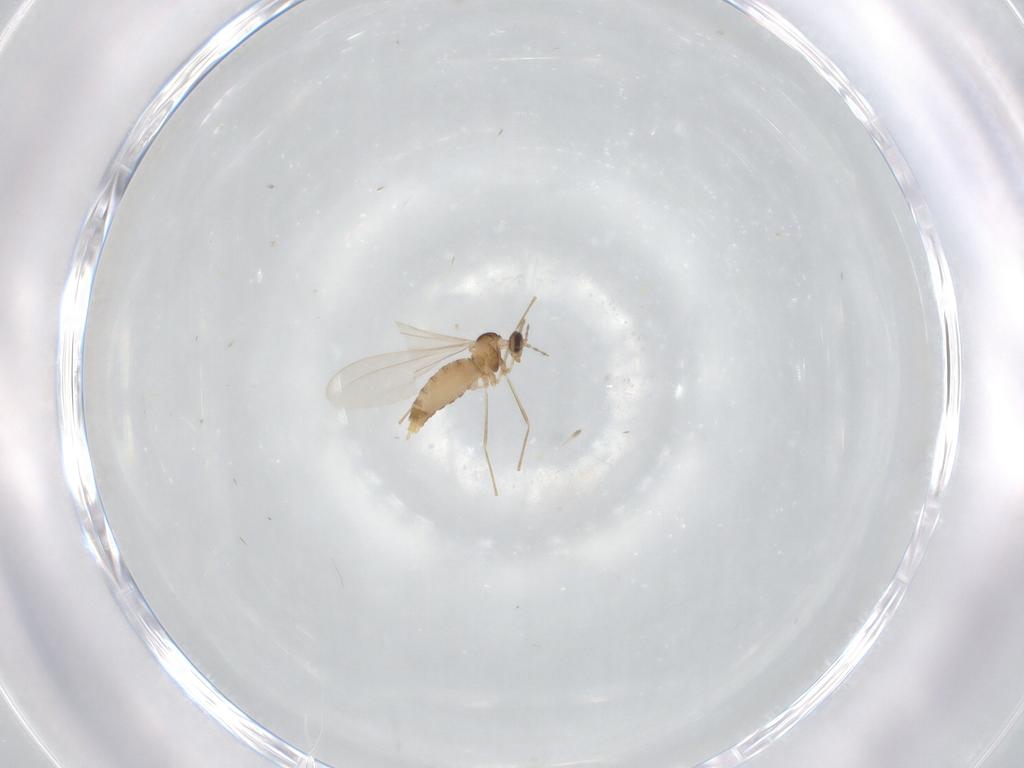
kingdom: Animalia
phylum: Arthropoda
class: Insecta
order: Diptera
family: Cecidomyiidae
